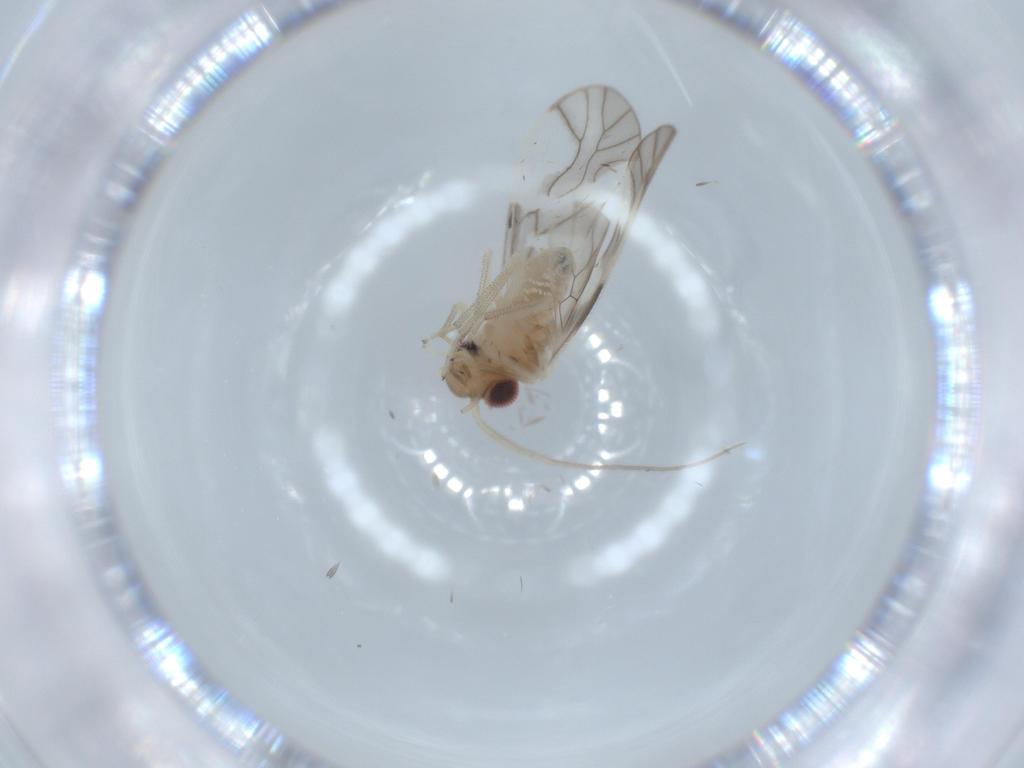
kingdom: Animalia
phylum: Arthropoda
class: Insecta
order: Psocodea
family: Caeciliusidae
